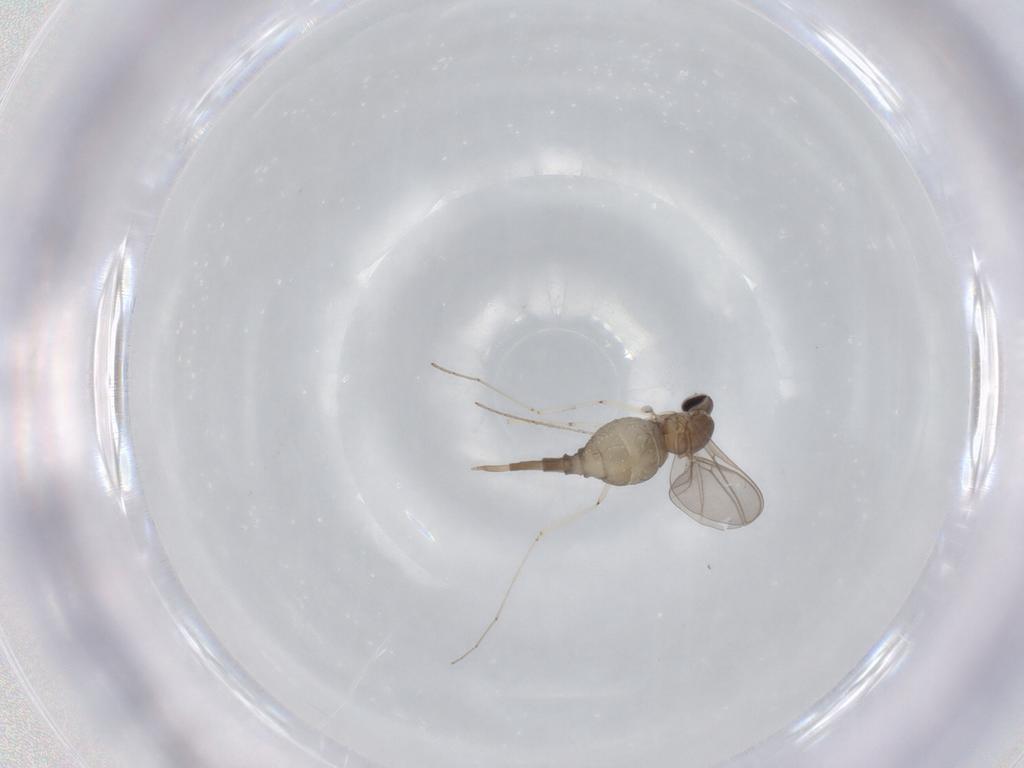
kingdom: Animalia
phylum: Arthropoda
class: Insecta
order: Diptera
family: Cecidomyiidae
